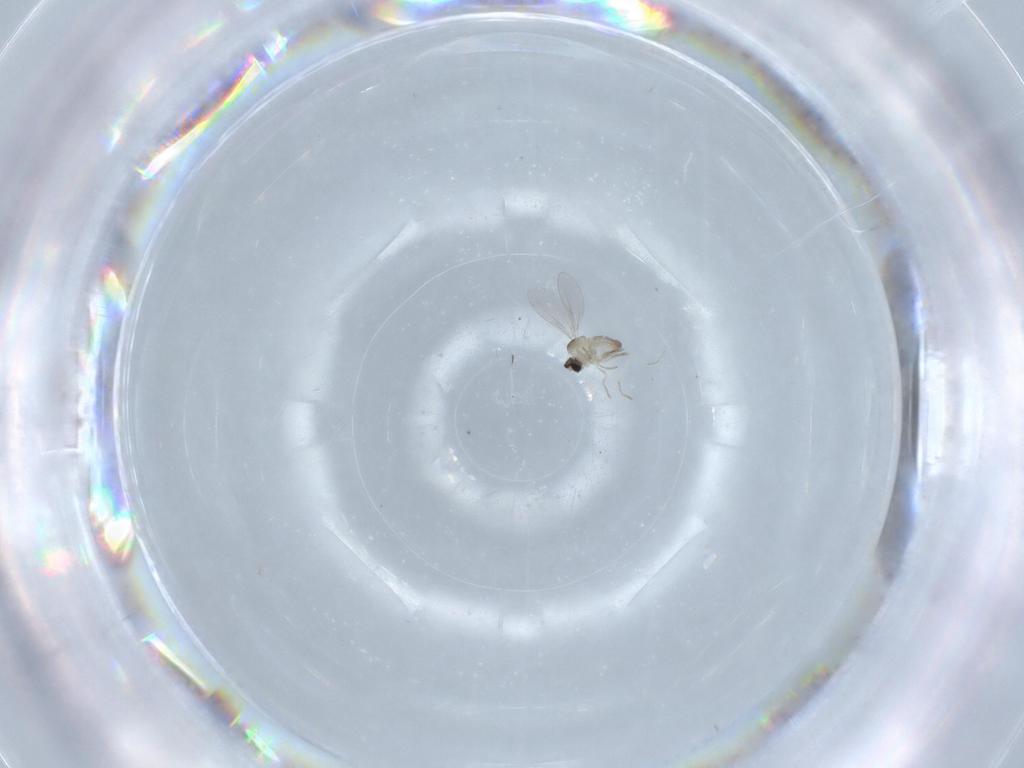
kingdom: Animalia
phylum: Arthropoda
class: Insecta
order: Diptera
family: Cecidomyiidae
